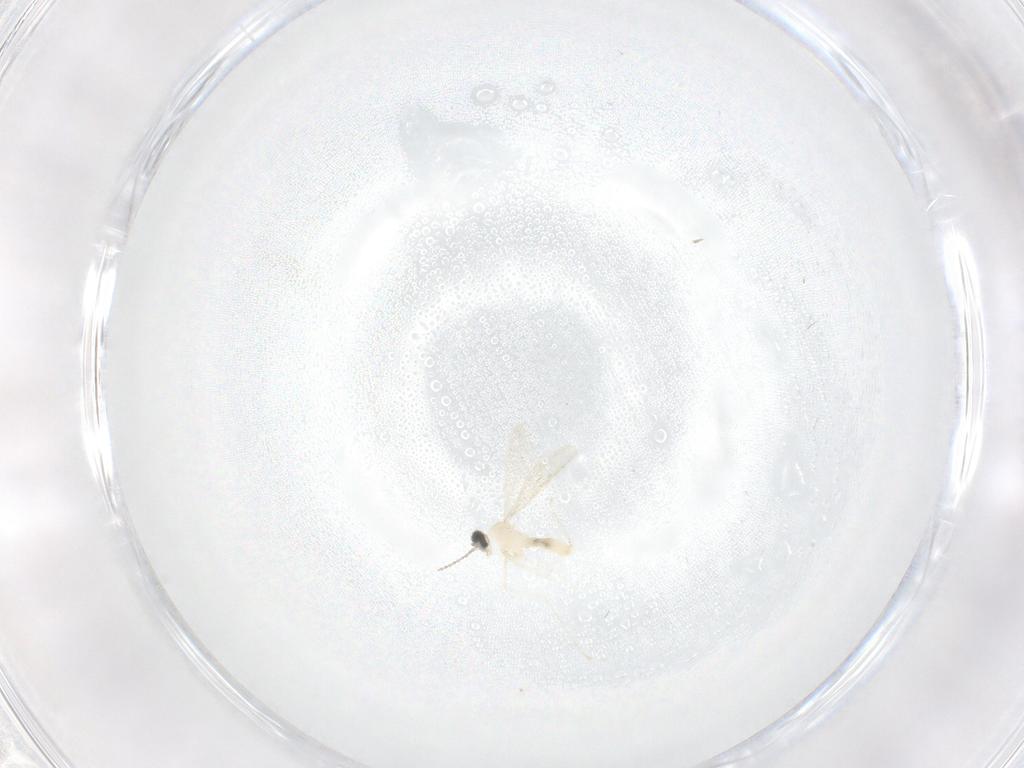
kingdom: Animalia
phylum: Arthropoda
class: Insecta
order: Diptera
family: Cecidomyiidae
